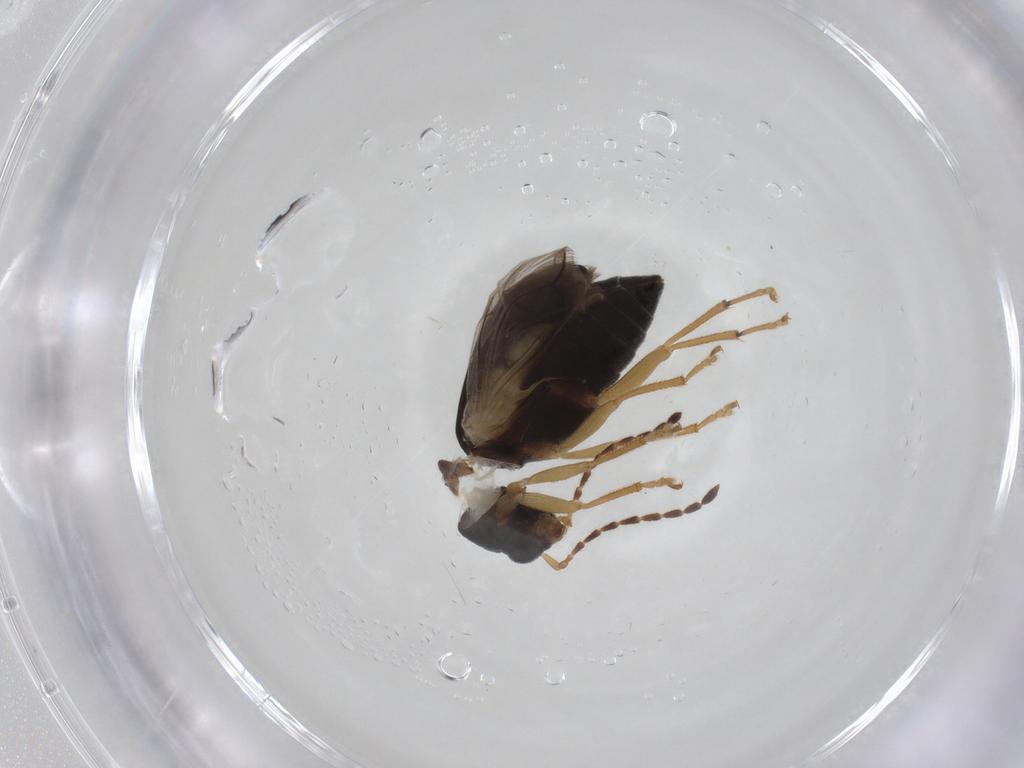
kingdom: Animalia
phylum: Arthropoda
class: Insecta
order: Coleoptera
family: Chrysomelidae
